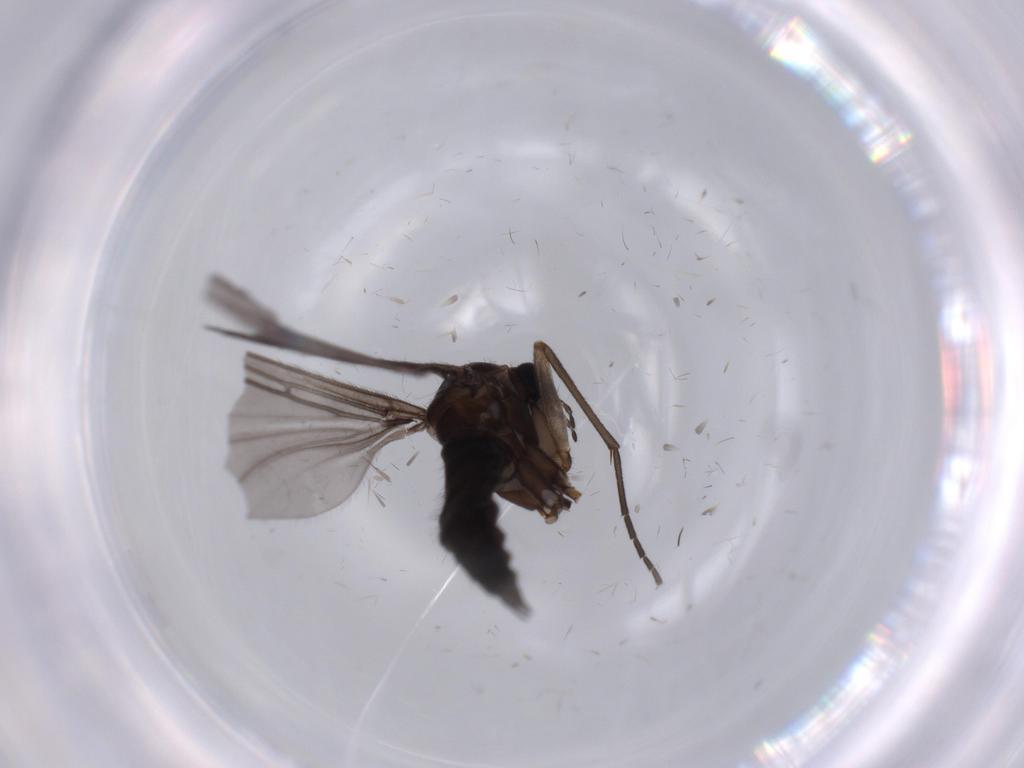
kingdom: Animalia
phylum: Arthropoda
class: Insecta
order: Diptera
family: Sciaridae
